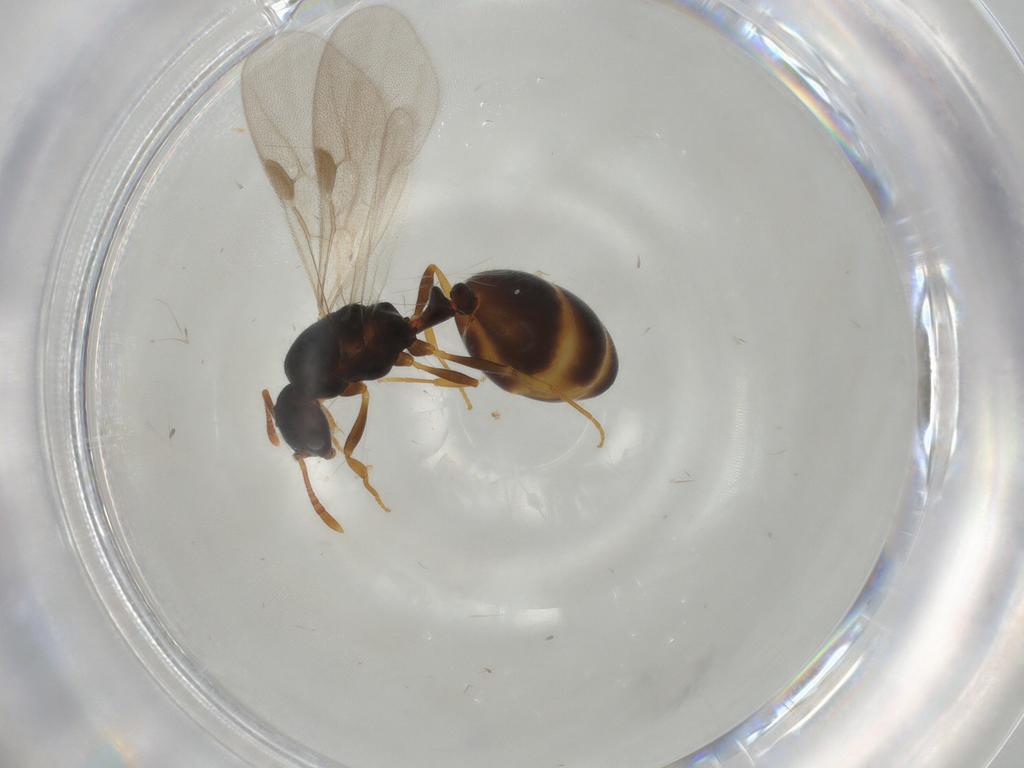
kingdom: Animalia
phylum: Arthropoda
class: Insecta
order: Hymenoptera
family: Formicidae
